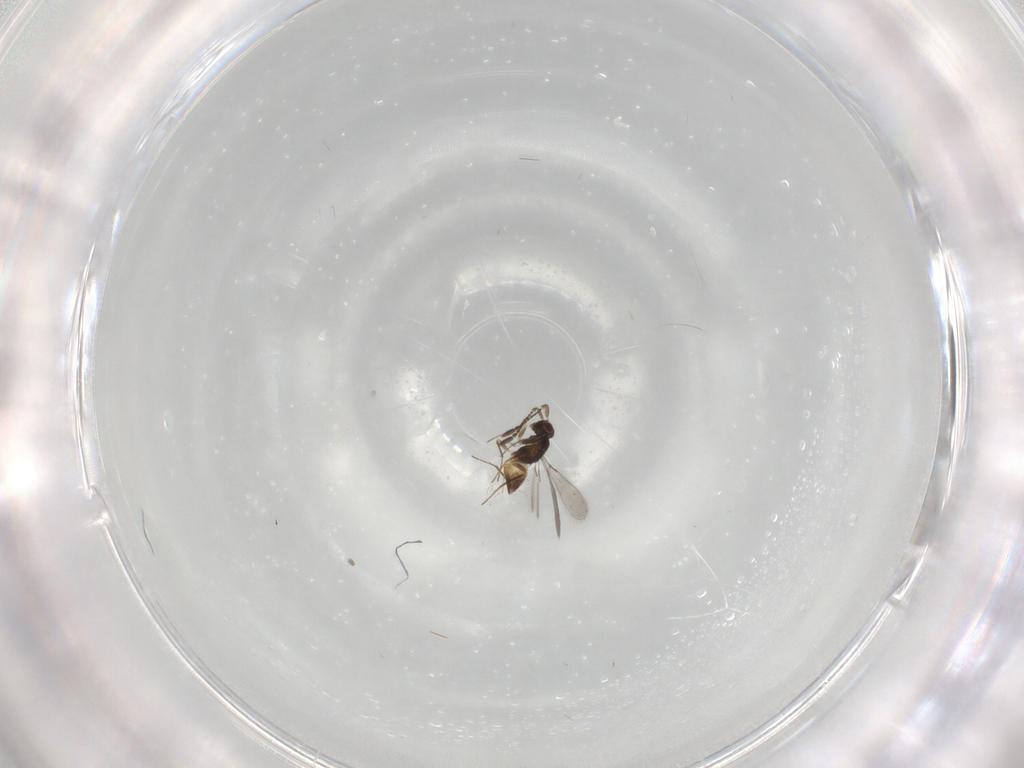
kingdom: Animalia
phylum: Arthropoda
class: Insecta
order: Hymenoptera
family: Mymaridae
